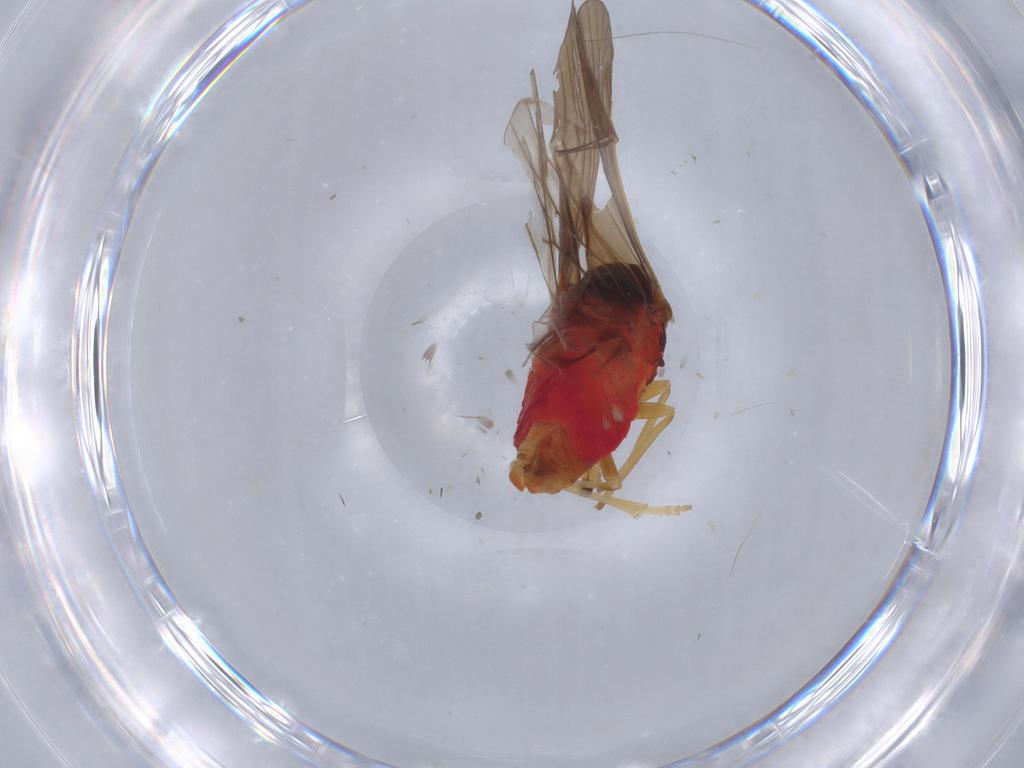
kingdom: Animalia
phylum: Arthropoda
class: Insecta
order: Hemiptera
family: Derbidae
